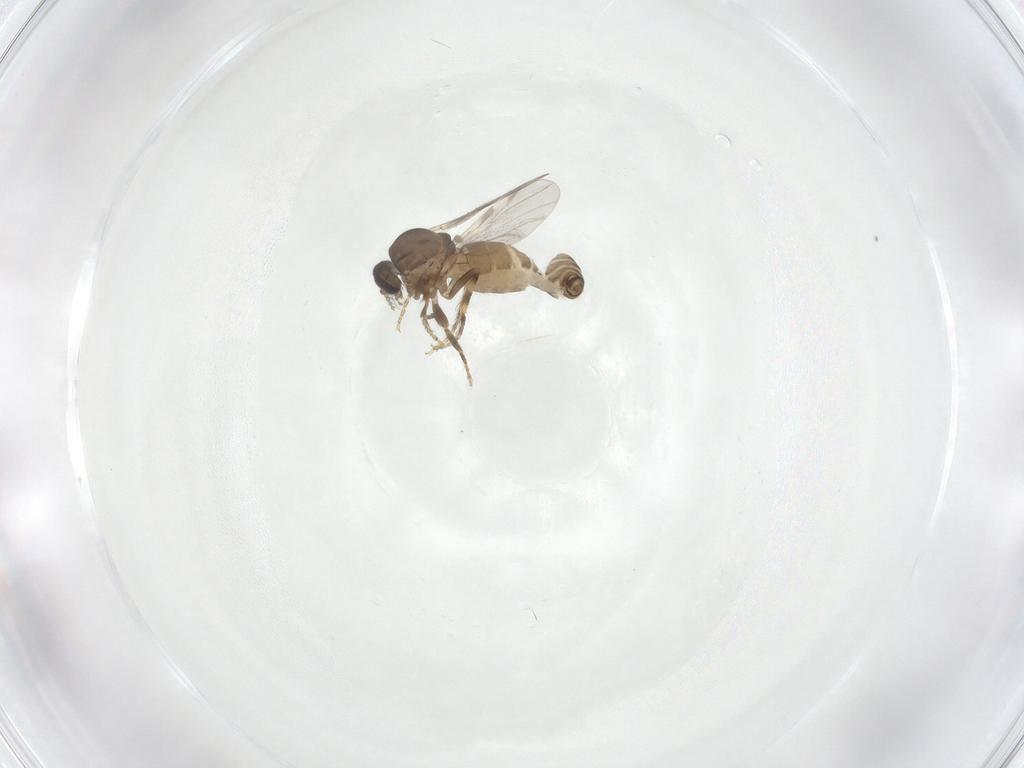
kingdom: Animalia
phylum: Arthropoda
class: Insecta
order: Diptera
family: Ceratopogonidae
